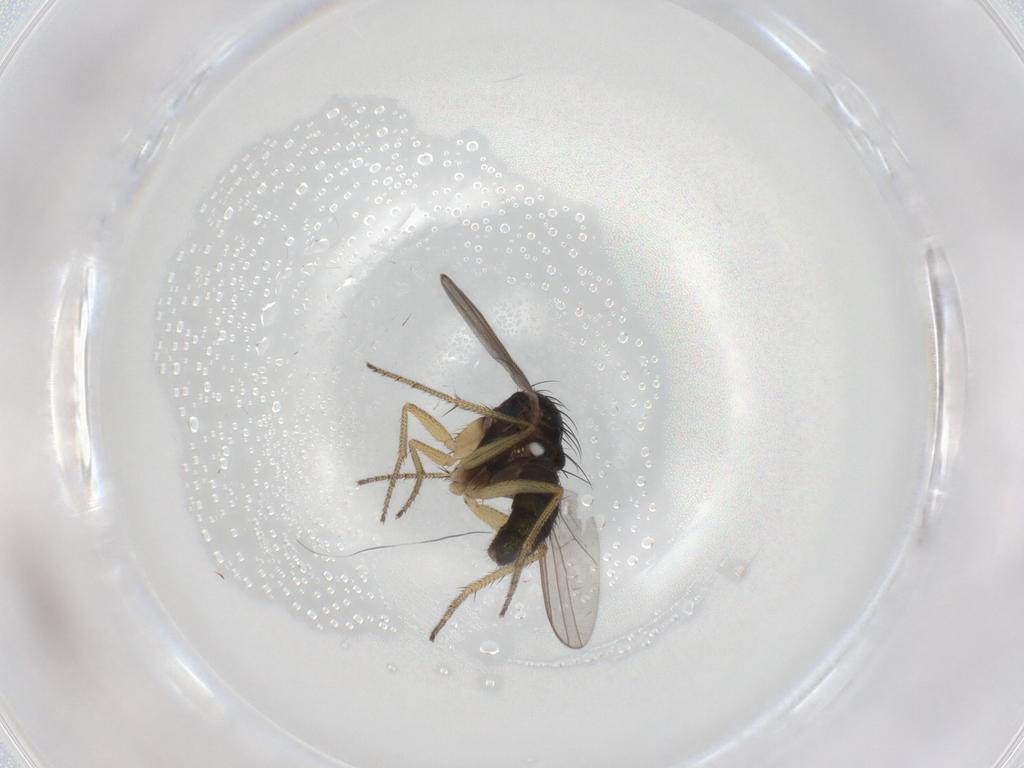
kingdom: Animalia
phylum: Arthropoda
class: Insecta
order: Diptera
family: Dolichopodidae
